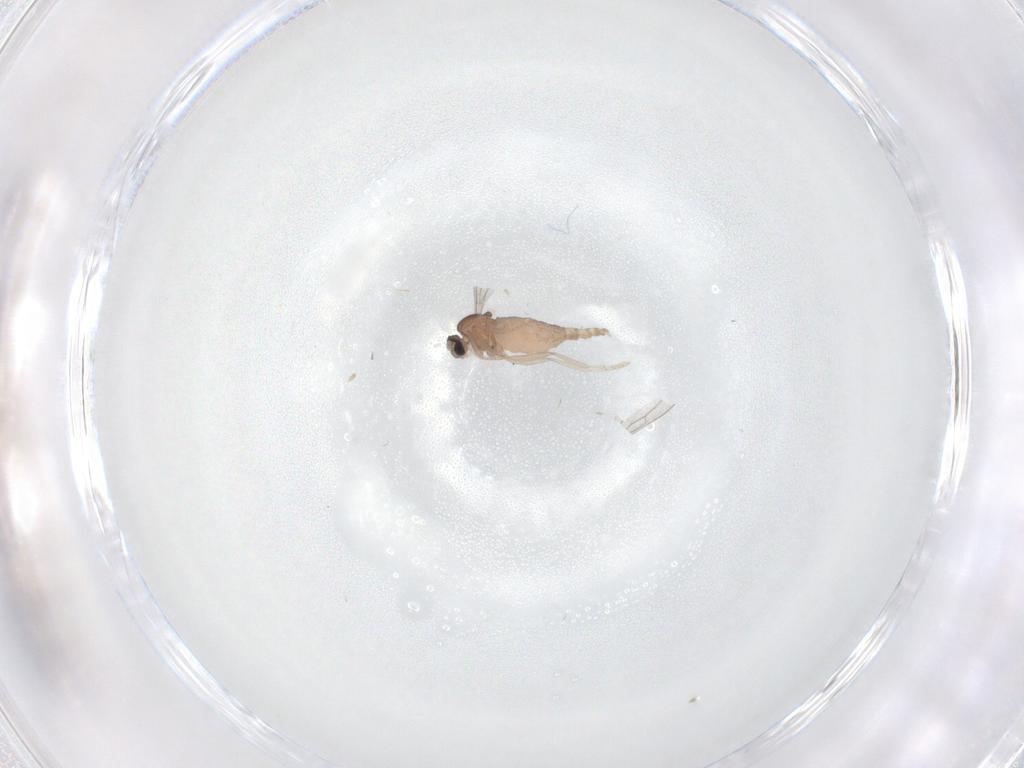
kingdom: Animalia
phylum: Arthropoda
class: Insecta
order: Diptera
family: Cecidomyiidae
